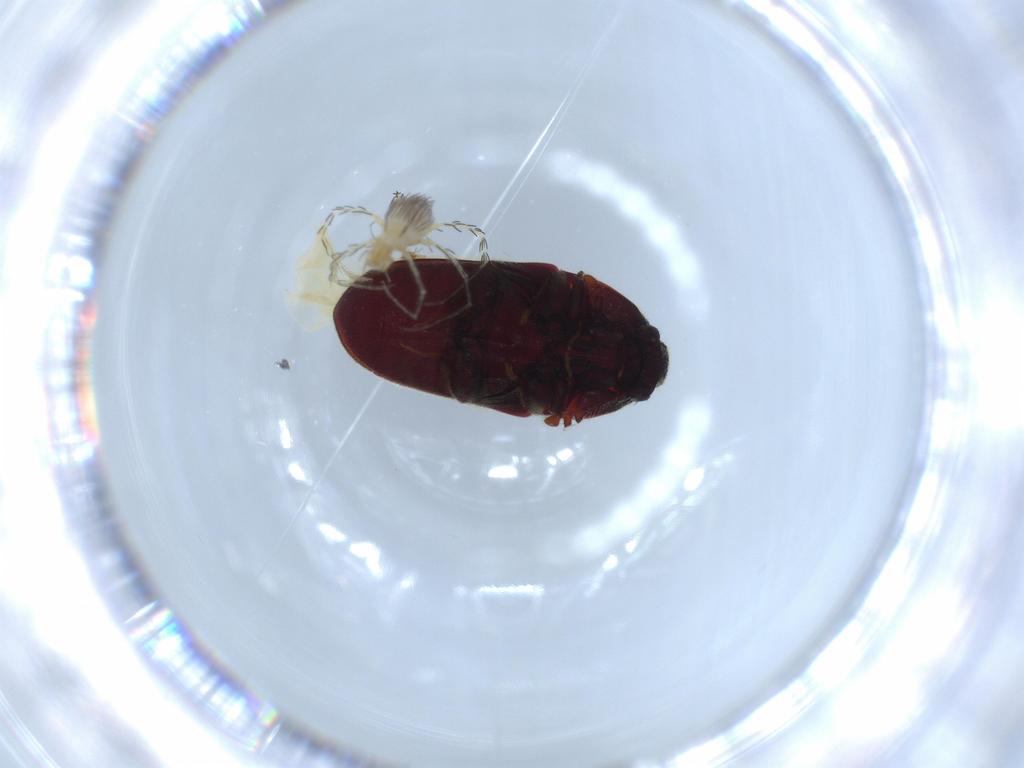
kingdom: Animalia
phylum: Arthropoda
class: Insecta
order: Coleoptera
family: Throscidae
